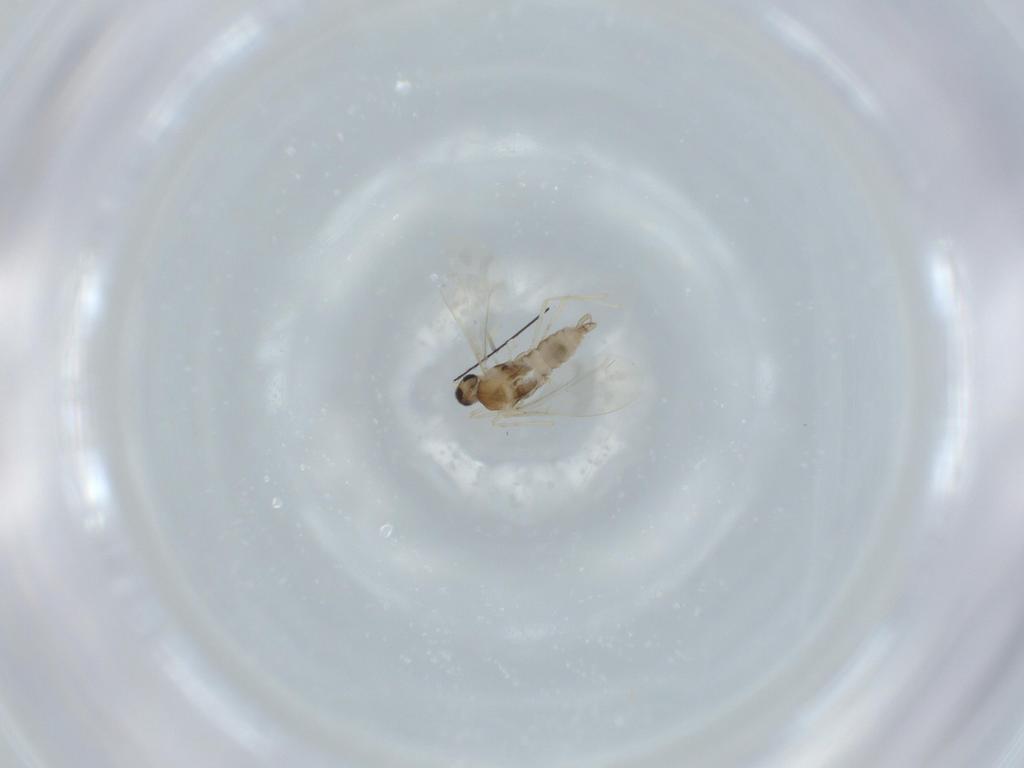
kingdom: Animalia
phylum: Arthropoda
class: Insecta
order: Diptera
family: Cecidomyiidae
